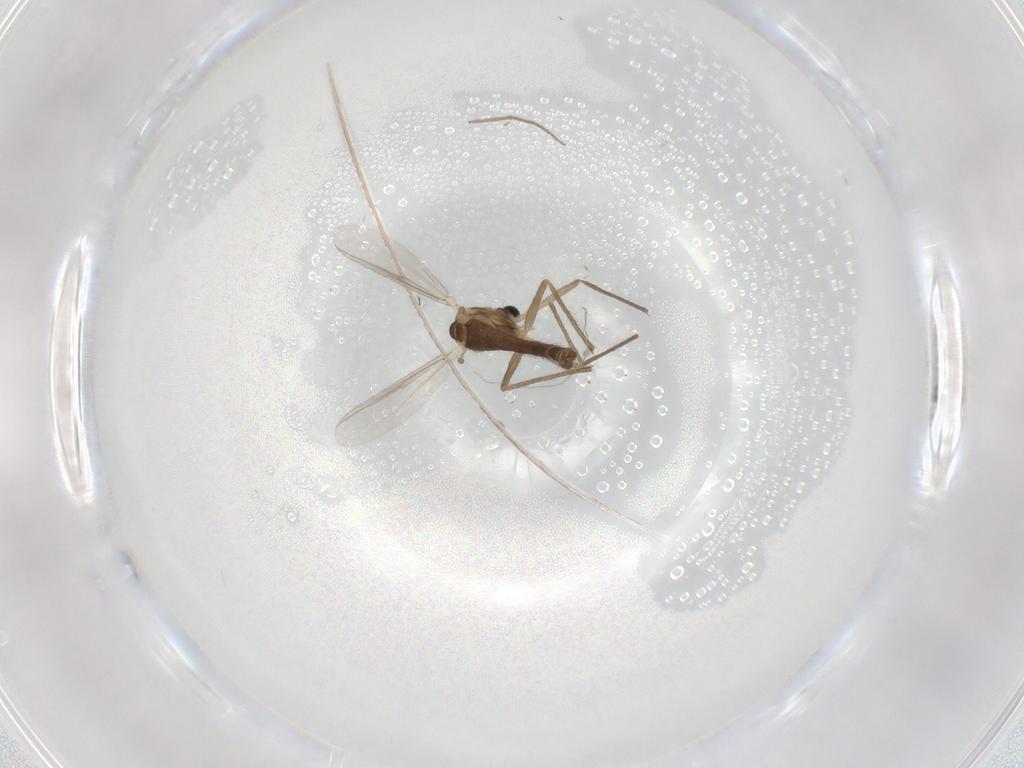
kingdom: Animalia
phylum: Arthropoda
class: Insecta
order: Diptera
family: Chironomidae
